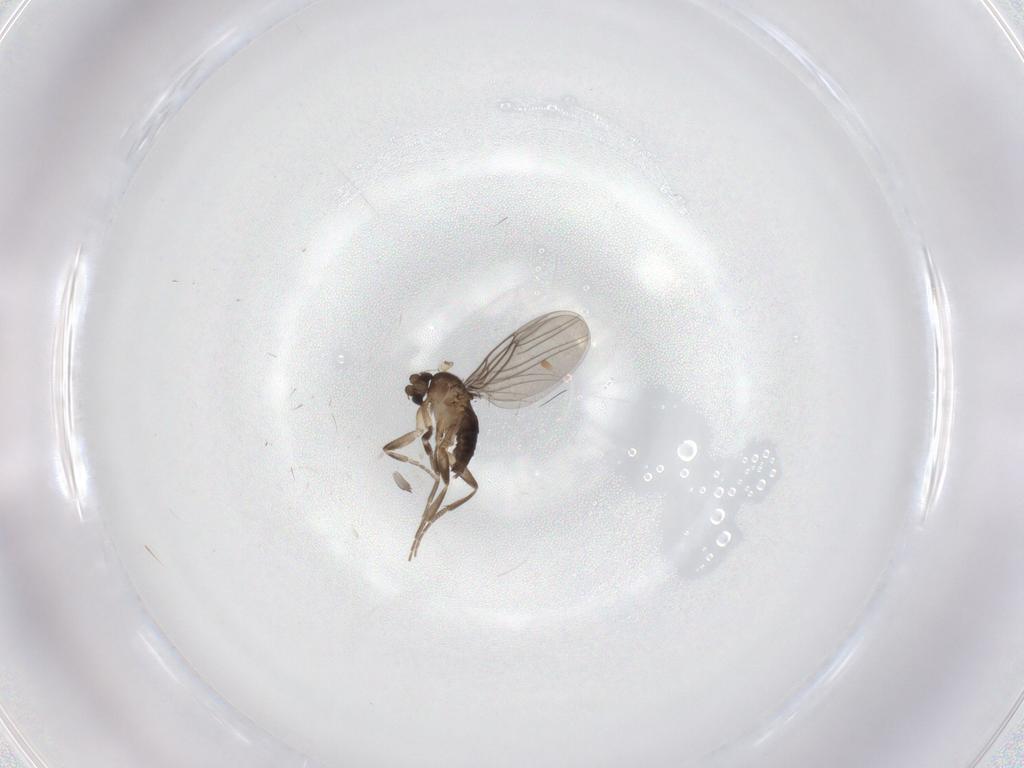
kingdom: Animalia
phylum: Arthropoda
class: Insecta
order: Diptera
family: Phoridae
